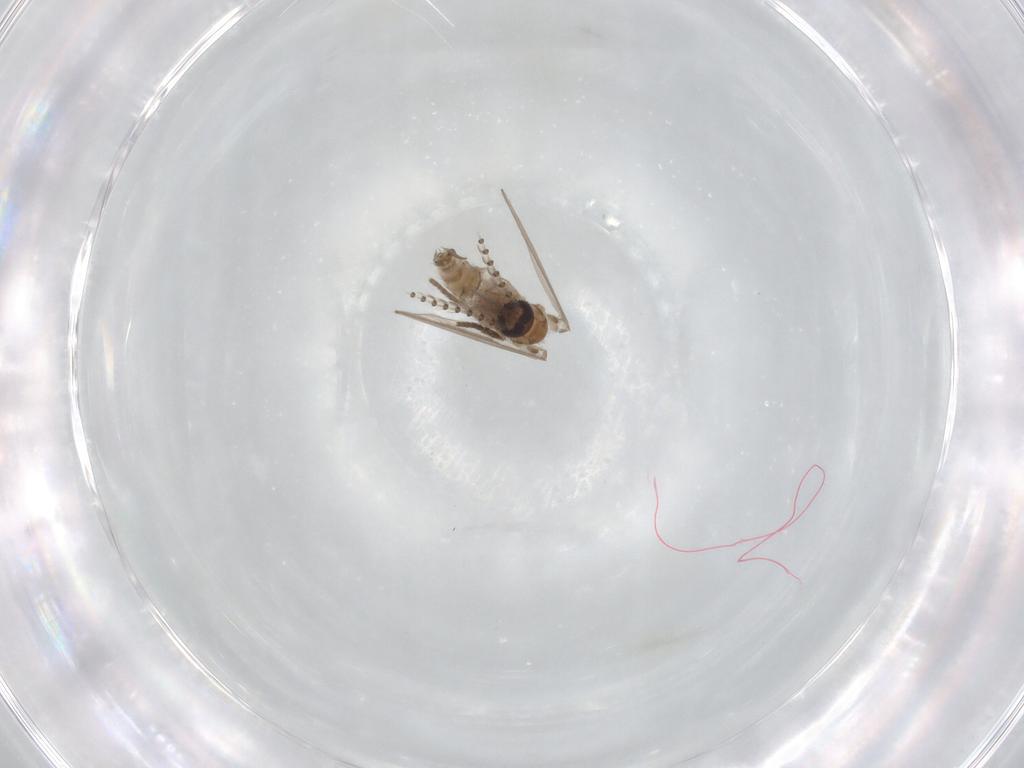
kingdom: Animalia
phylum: Arthropoda
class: Insecta
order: Diptera
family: Psychodidae
